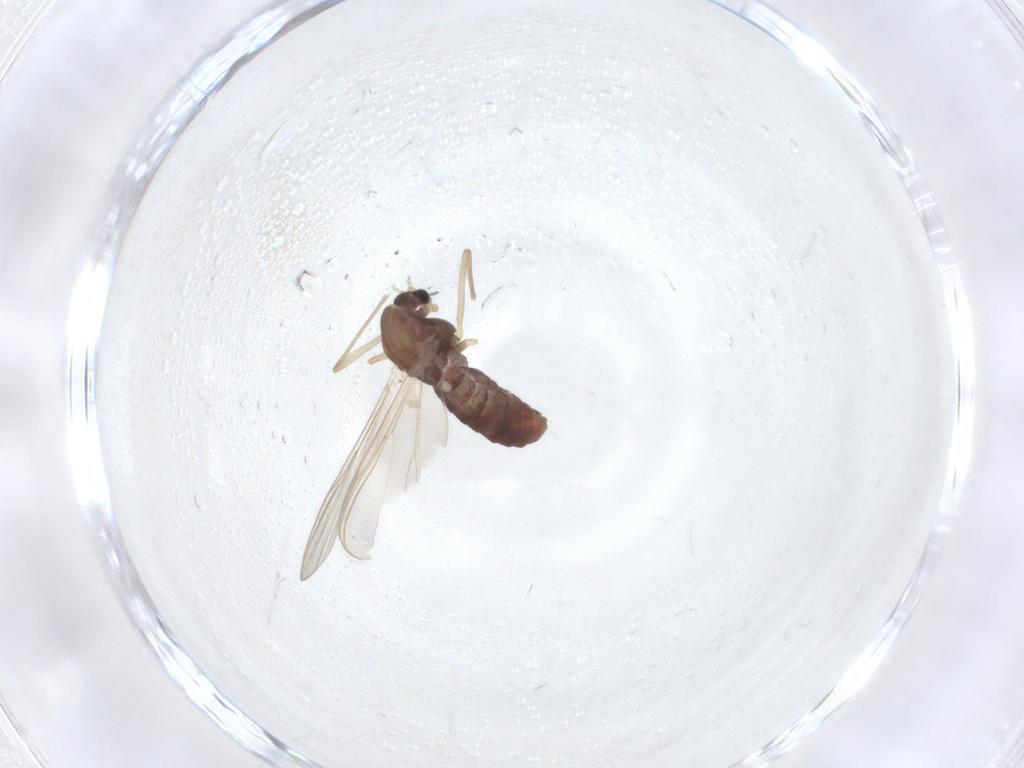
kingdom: Animalia
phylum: Arthropoda
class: Insecta
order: Diptera
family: Chironomidae
